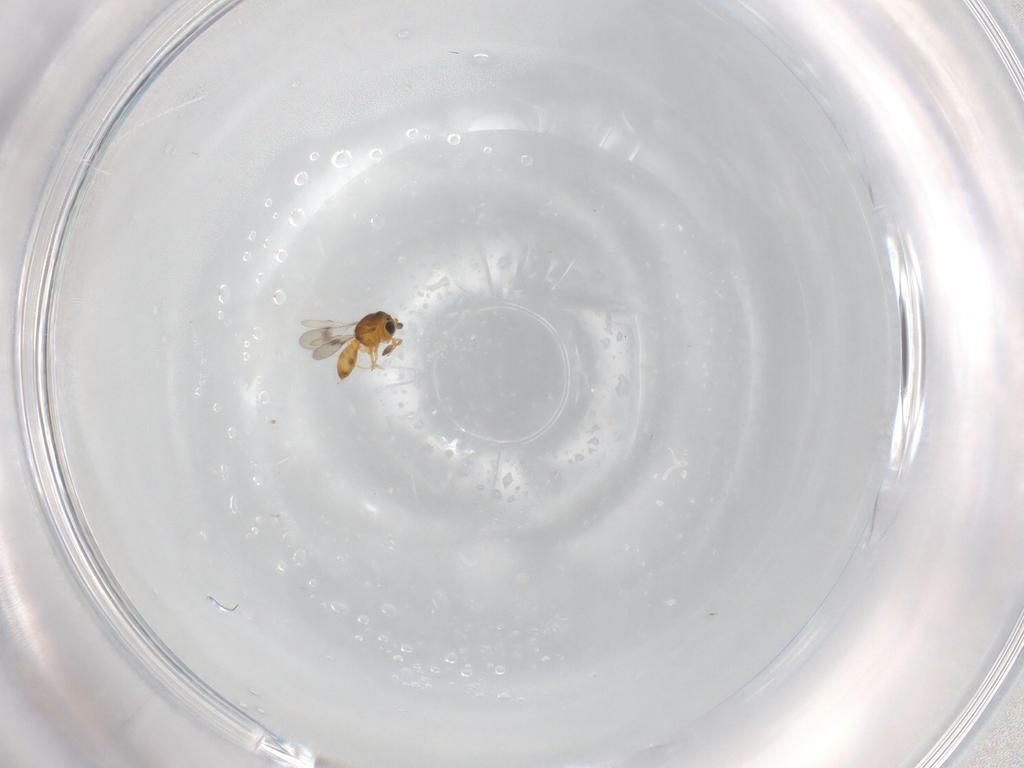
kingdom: Animalia
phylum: Arthropoda
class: Insecta
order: Hymenoptera
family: Scelionidae
